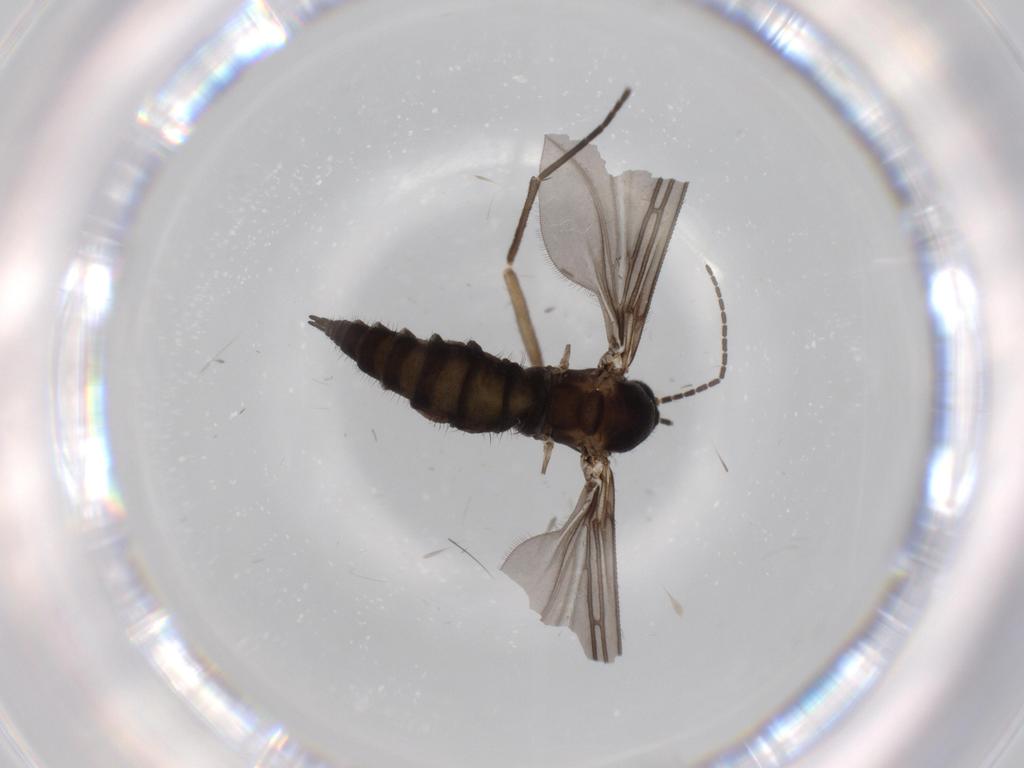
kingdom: Animalia
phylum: Arthropoda
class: Insecta
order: Diptera
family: Sciaridae
